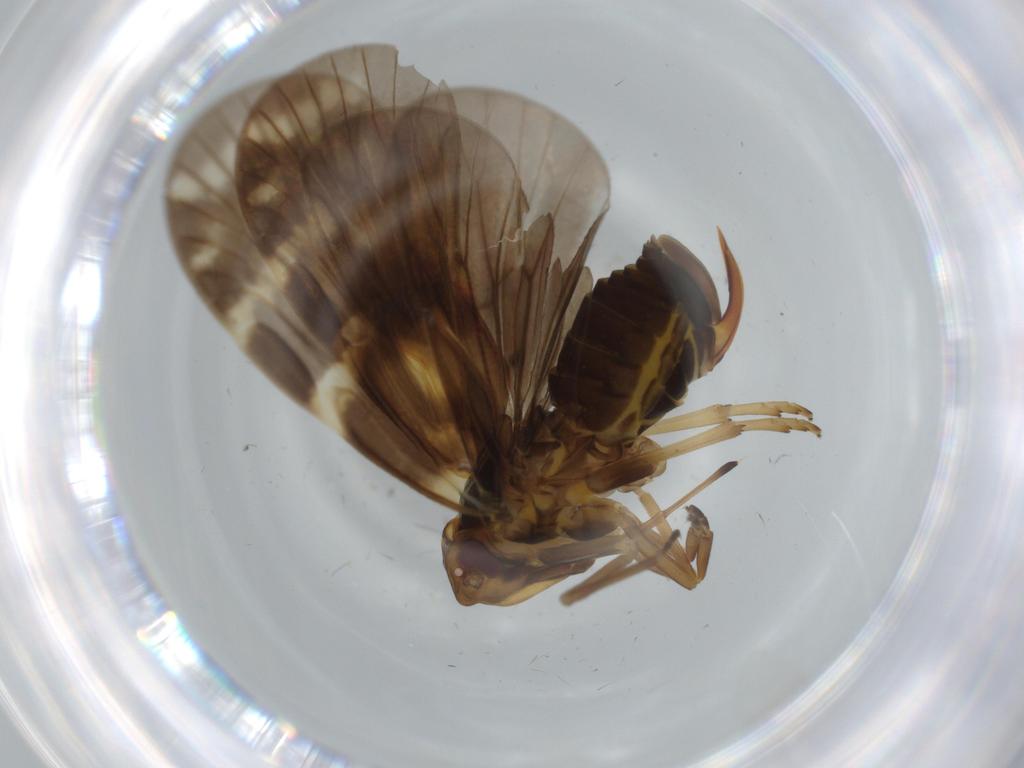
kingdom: Animalia
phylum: Arthropoda
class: Insecta
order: Hemiptera
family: Cixiidae
